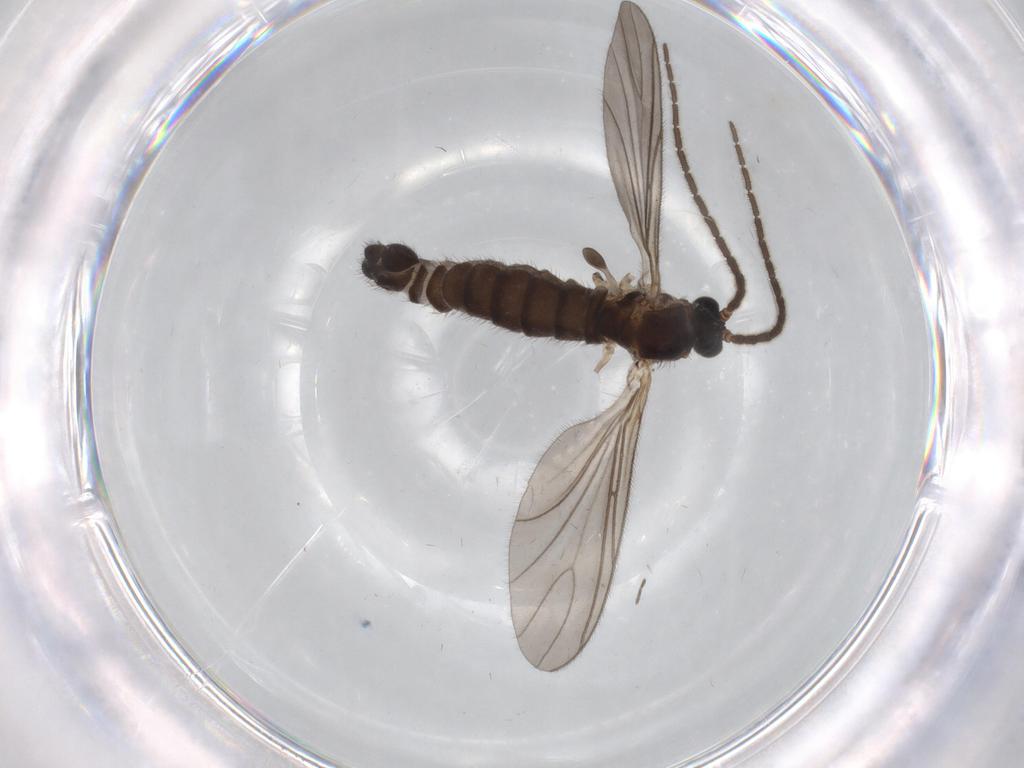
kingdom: Animalia
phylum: Arthropoda
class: Insecta
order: Diptera
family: Sciaridae
